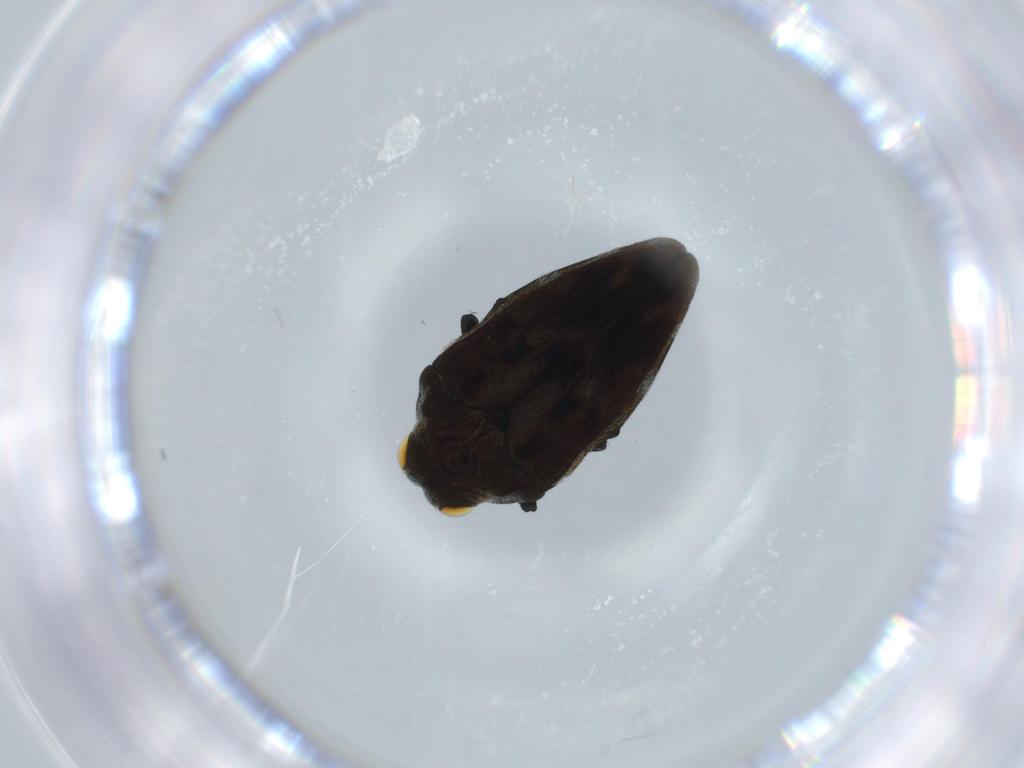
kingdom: Animalia
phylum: Arthropoda
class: Insecta
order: Coleoptera
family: Buprestidae
